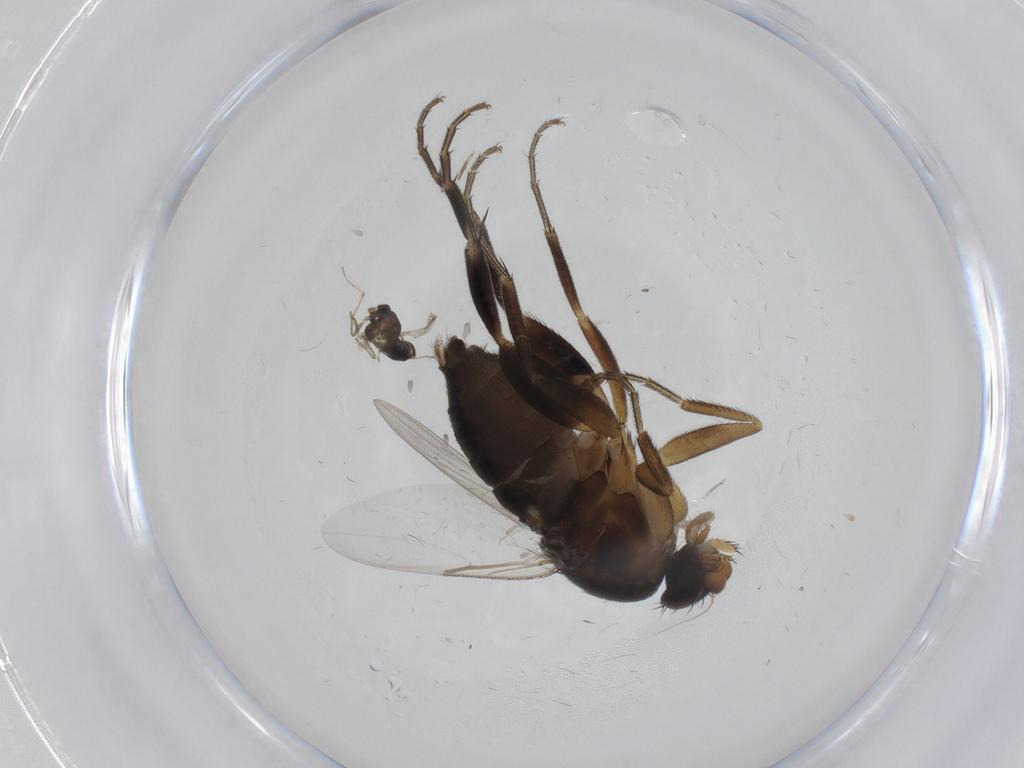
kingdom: Animalia
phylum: Arthropoda
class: Insecta
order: Diptera
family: Phoridae
